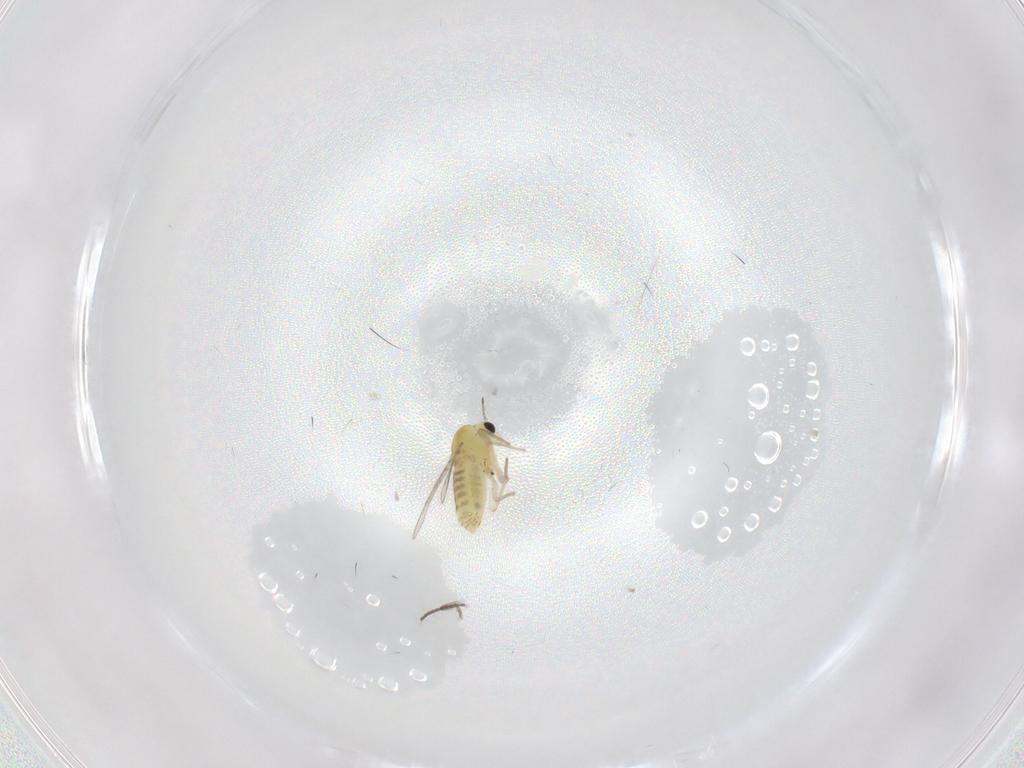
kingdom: Animalia
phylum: Arthropoda
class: Insecta
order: Diptera
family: Chironomidae
